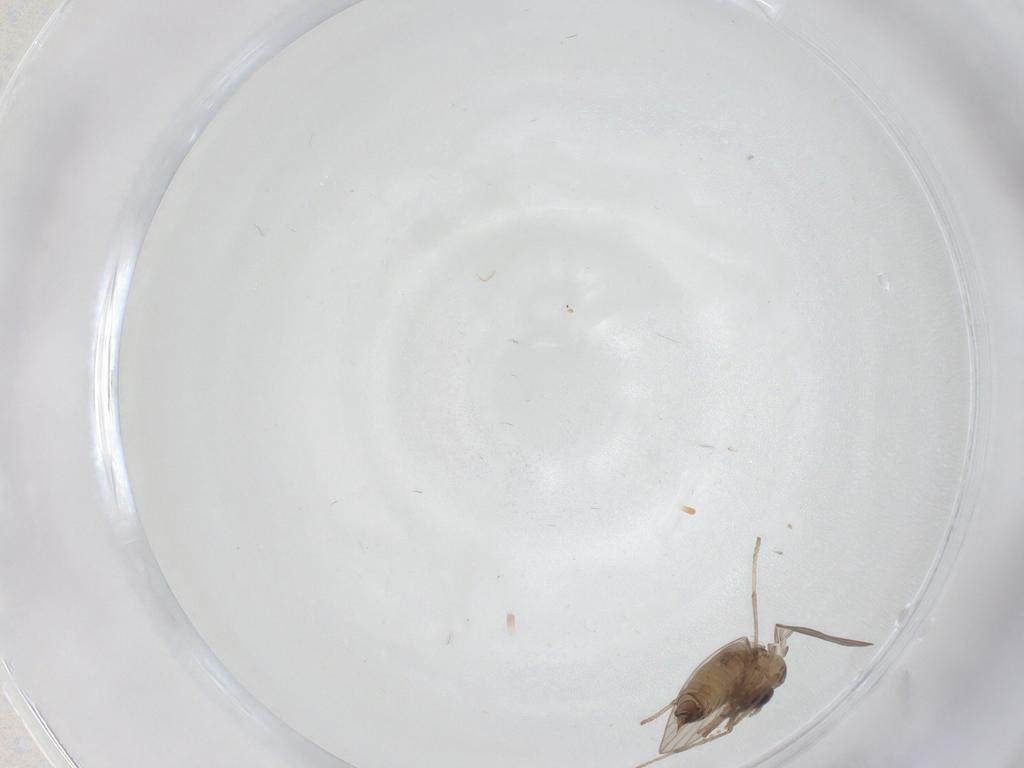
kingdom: Animalia
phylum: Arthropoda
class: Insecta
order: Diptera
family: Psychodidae
